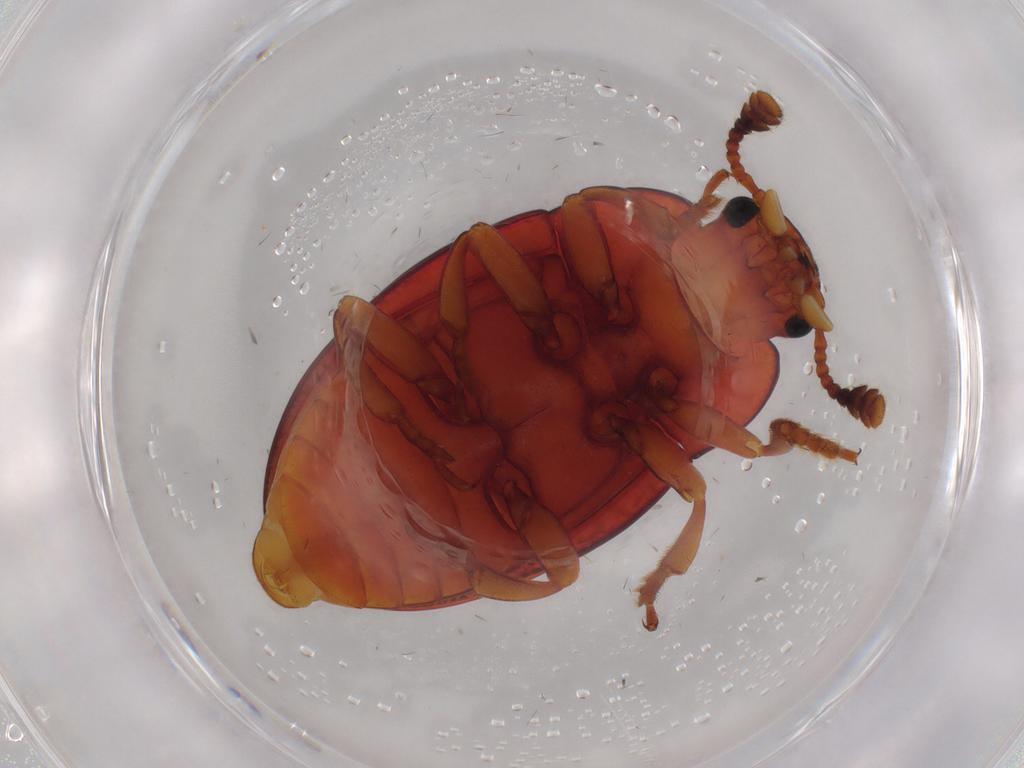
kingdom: Animalia
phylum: Arthropoda
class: Insecta
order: Coleoptera
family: Erotylidae
